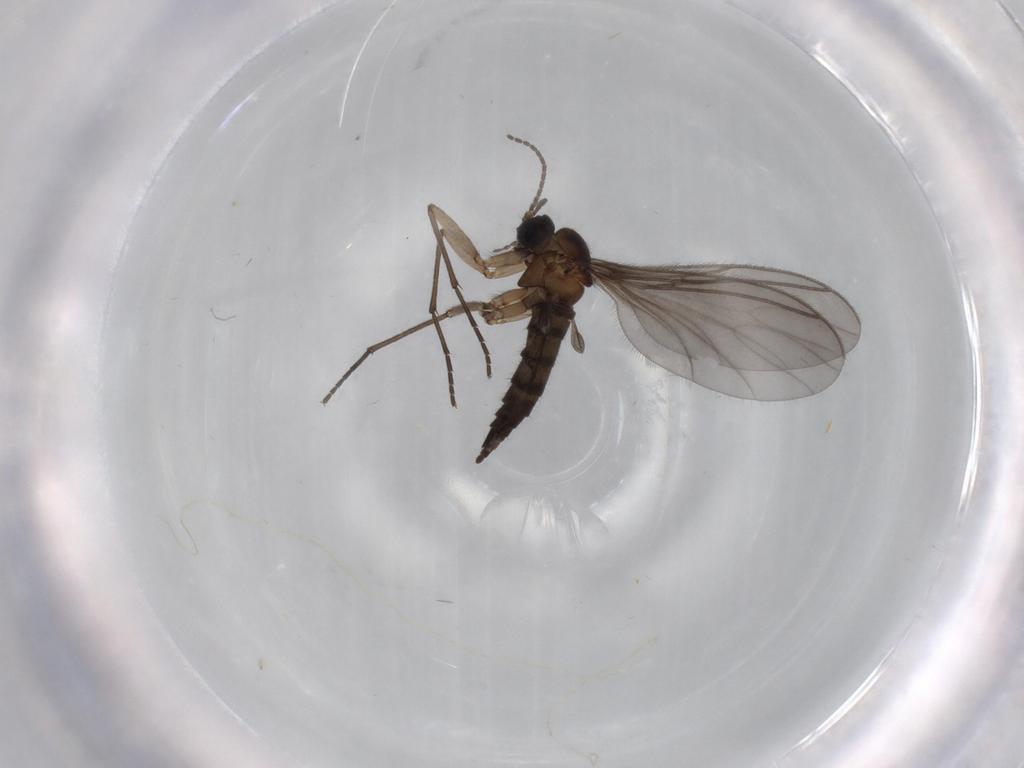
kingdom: Animalia
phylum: Arthropoda
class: Insecta
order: Diptera
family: Sciaridae
